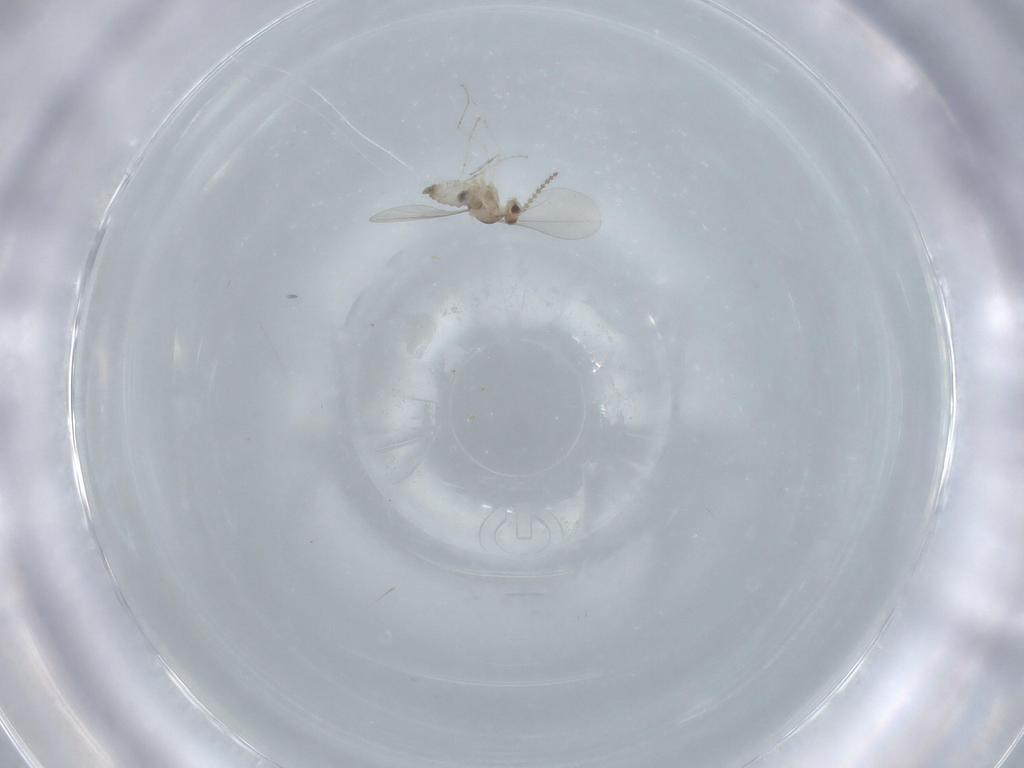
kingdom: Animalia
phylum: Arthropoda
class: Insecta
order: Diptera
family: Cecidomyiidae
